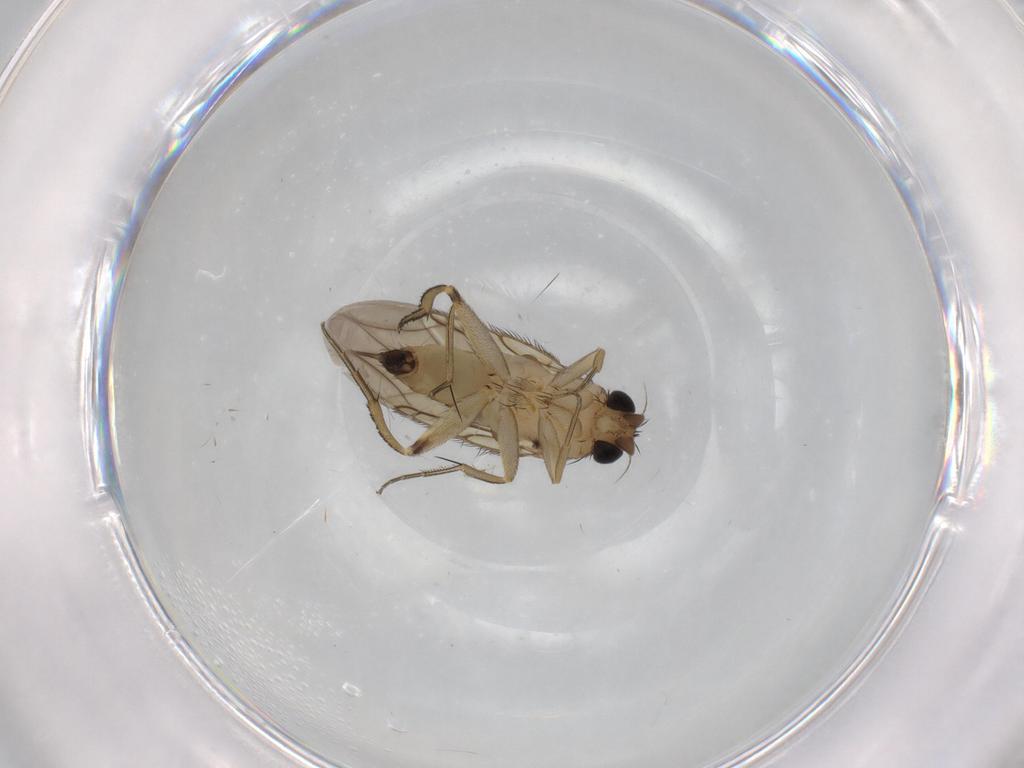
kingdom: Animalia
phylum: Arthropoda
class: Insecta
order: Diptera
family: Phoridae
